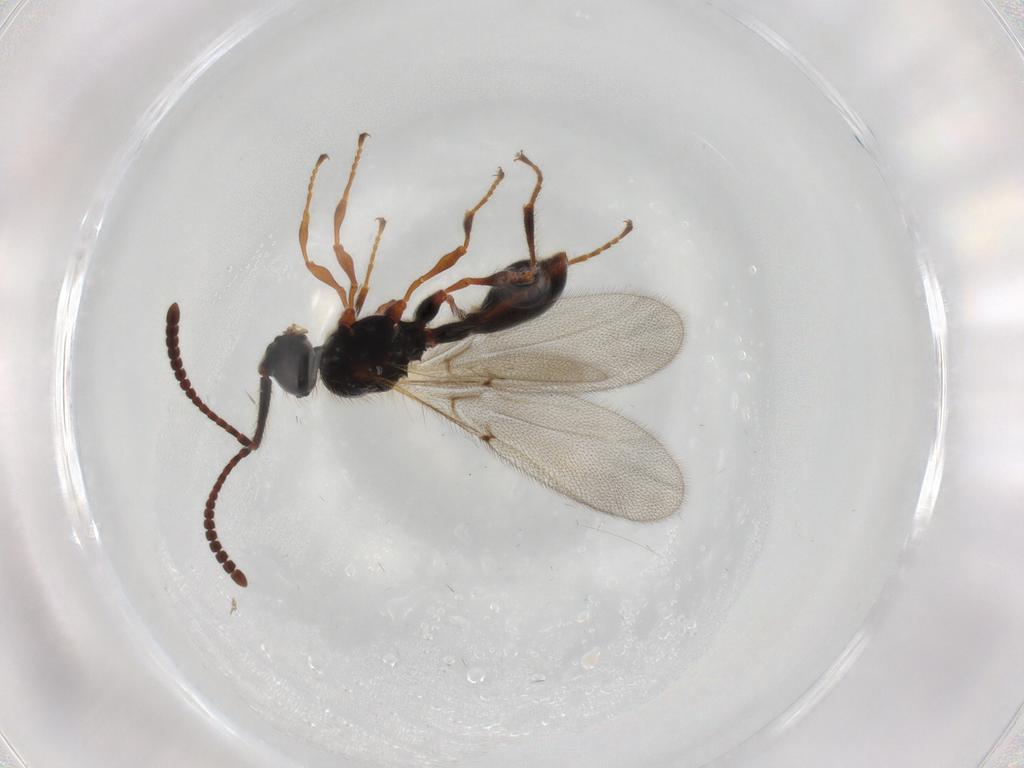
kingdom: Animalia
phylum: Arthropoda
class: Insecta
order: Hymenoptera
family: Diapriidae
